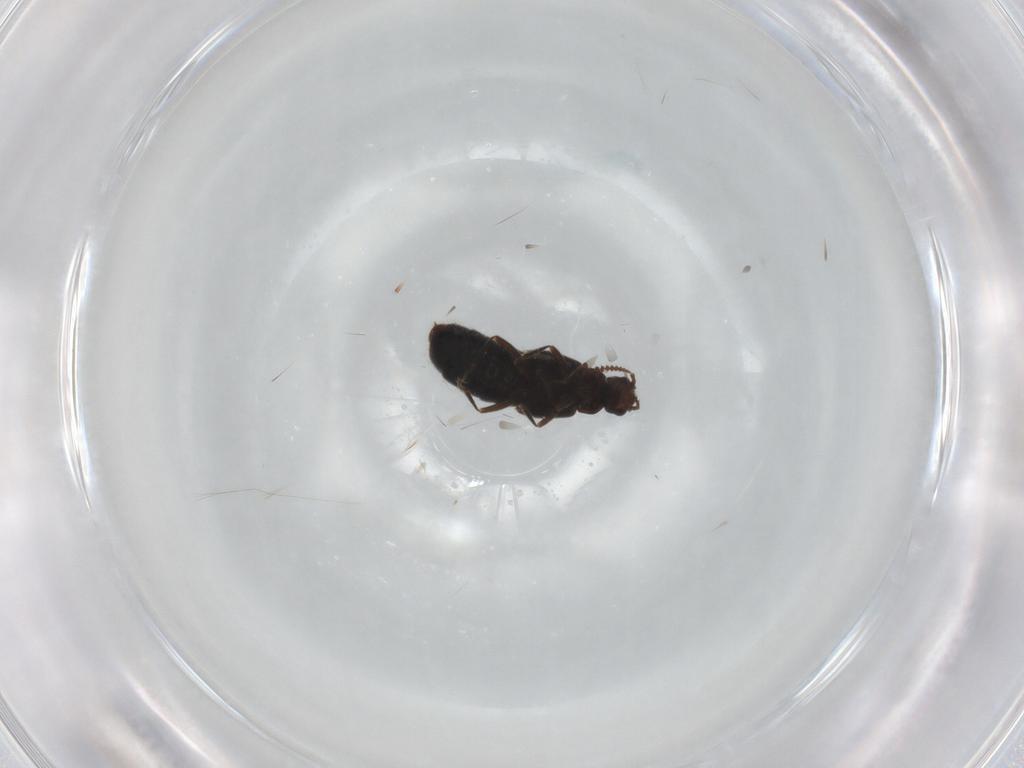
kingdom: Animalia
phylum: Arthropoda
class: Insecta
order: Coleoptera
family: Staphylinidae
